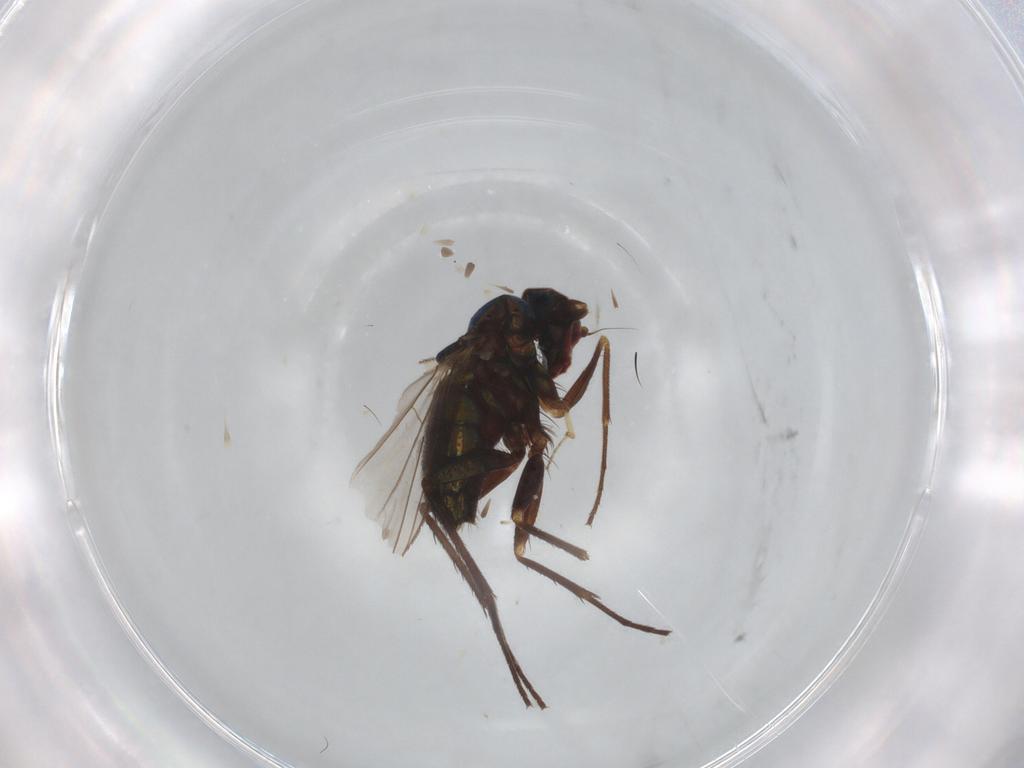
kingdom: Animalia
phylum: Arthropoda
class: Insecta
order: Diptera
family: Dolichopodidae
